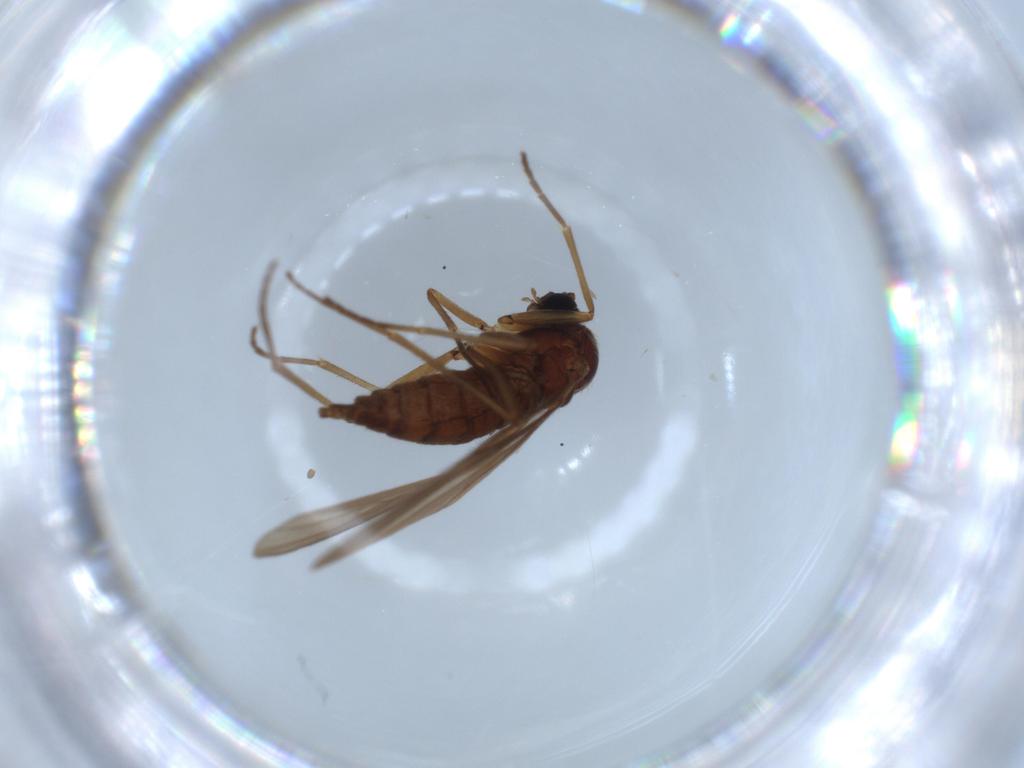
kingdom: Animalia
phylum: Arthropoda
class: Insecta
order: Diptera
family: Sciaridae
